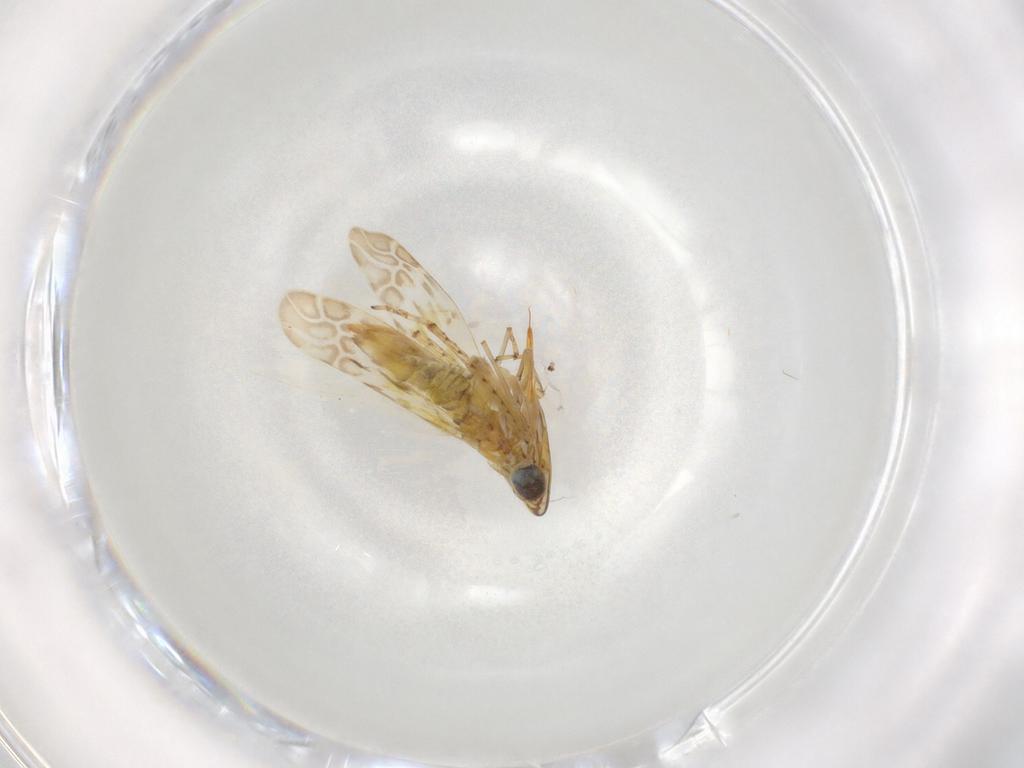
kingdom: Animalia
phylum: Arthropoda
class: Insecta
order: Hemiptera
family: Cicadellidae
